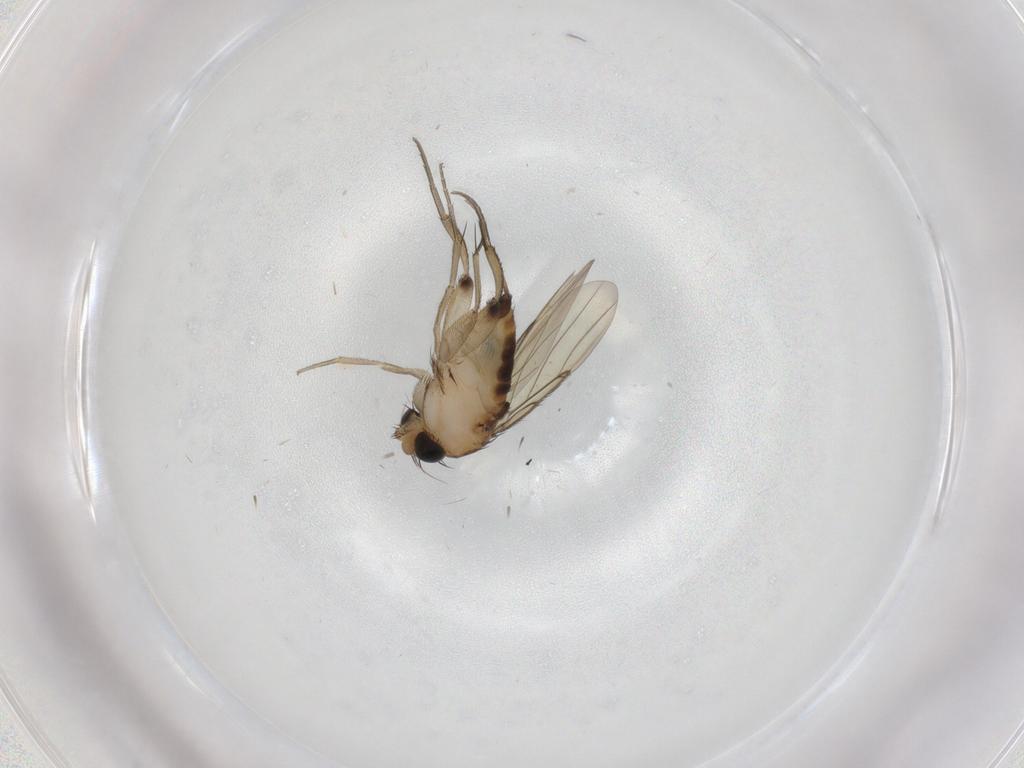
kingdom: Animalia
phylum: Arthropoda
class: Insecta
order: Diptera
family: Phoridae
